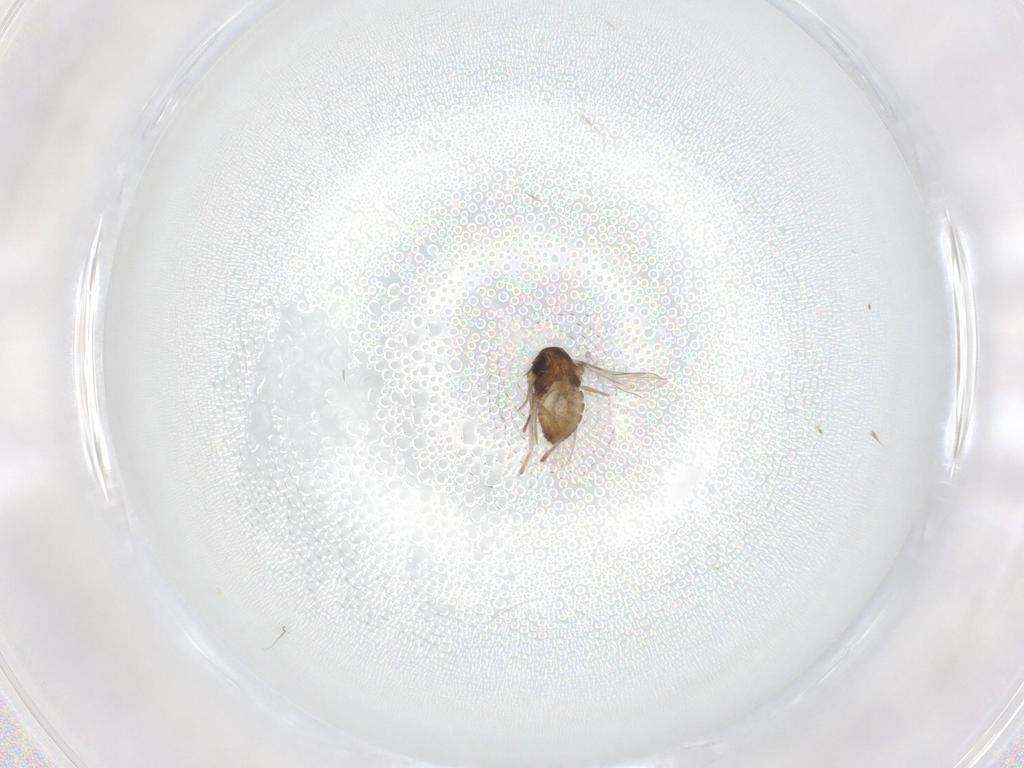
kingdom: Animalia
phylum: Arthropoda
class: Insecta
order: Diptera
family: Chironomidae
